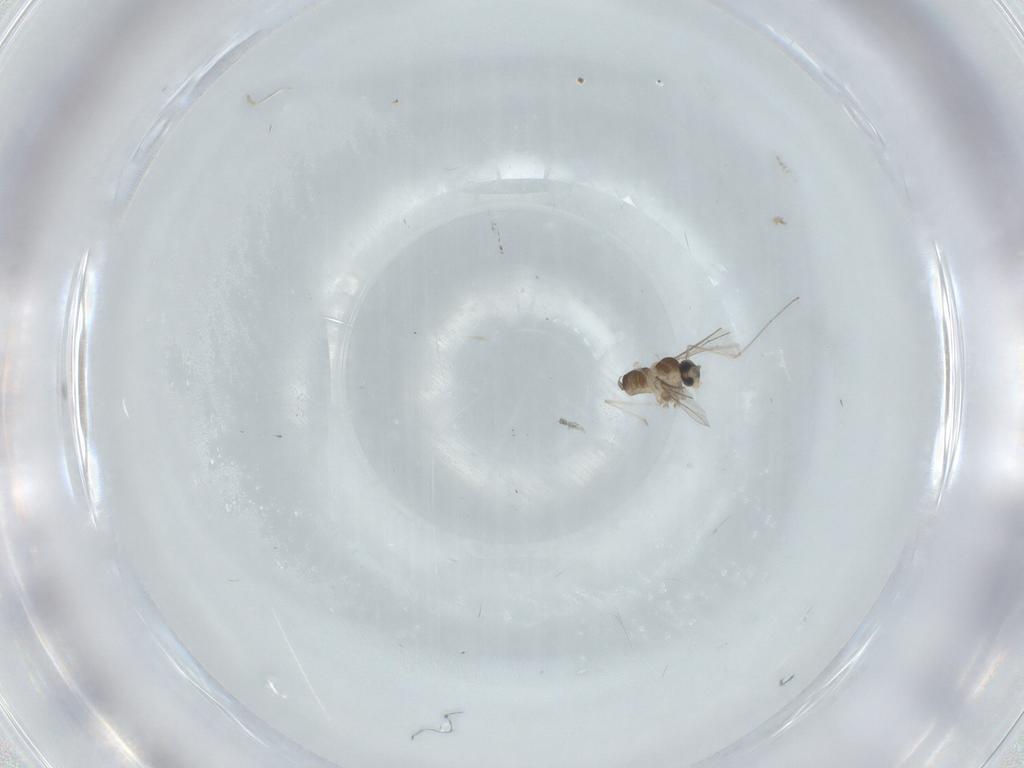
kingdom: Animalia
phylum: Arthropoda
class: Insecta
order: Diptera
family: Cecidomyiidae
